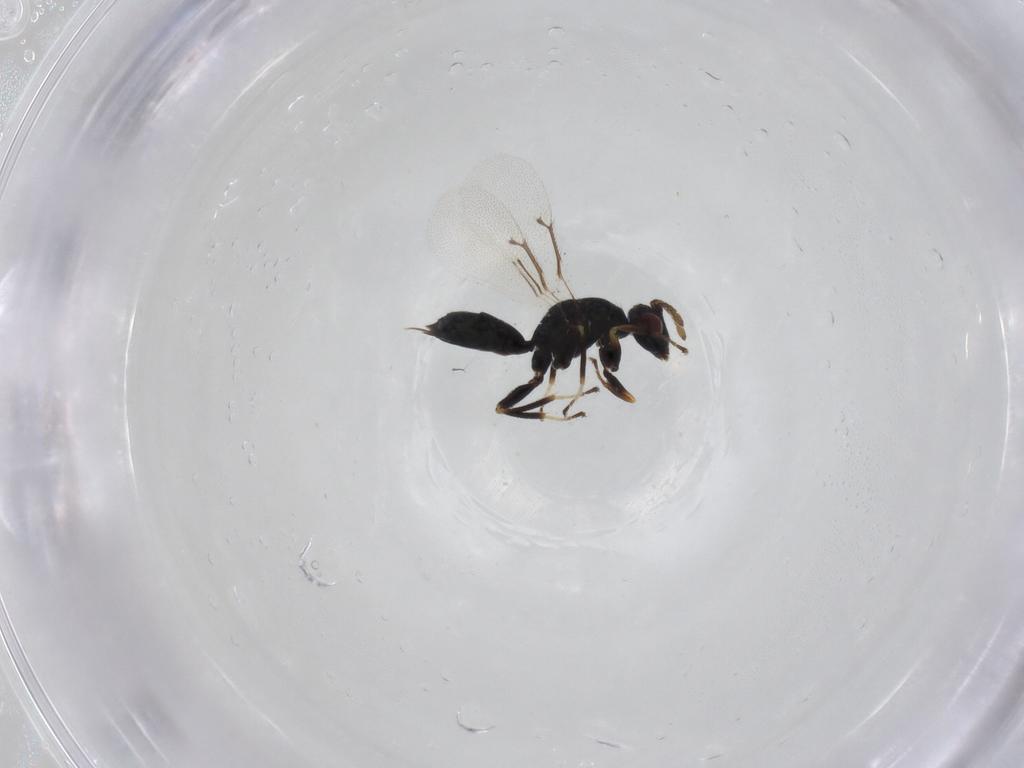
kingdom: Animalia
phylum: Arthropoda
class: Insecta
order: Hymenoptera
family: Eulophidae
